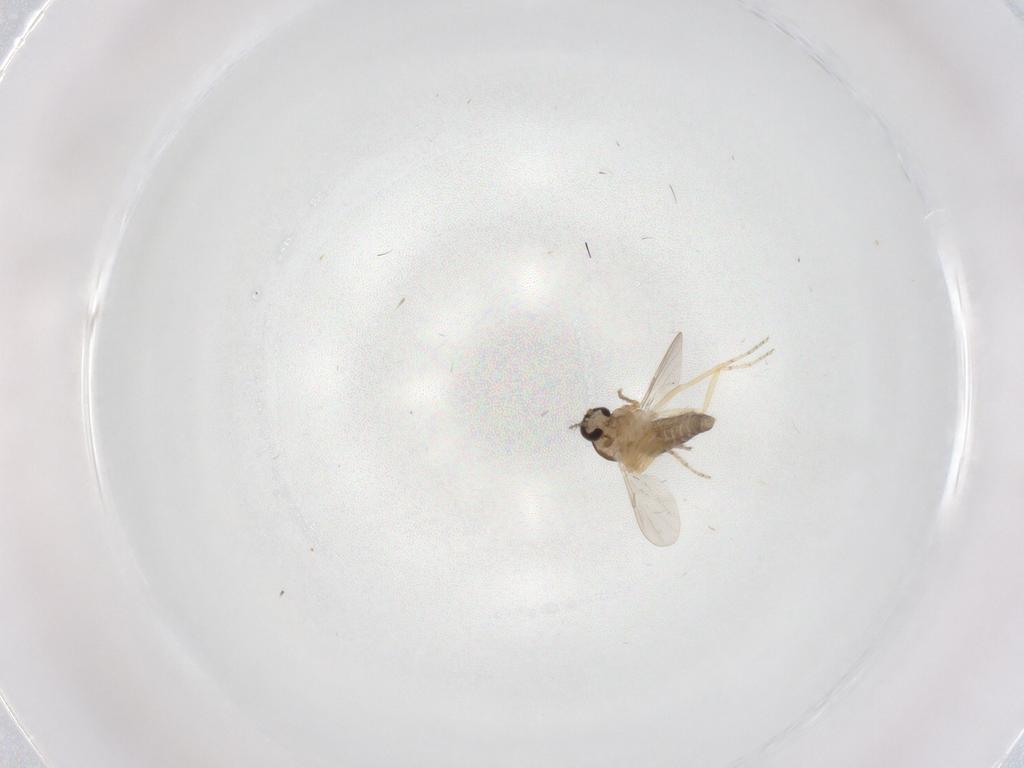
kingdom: Animalia
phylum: Arthropoda
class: Insecta
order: Diptera
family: Ceratopogonidae
